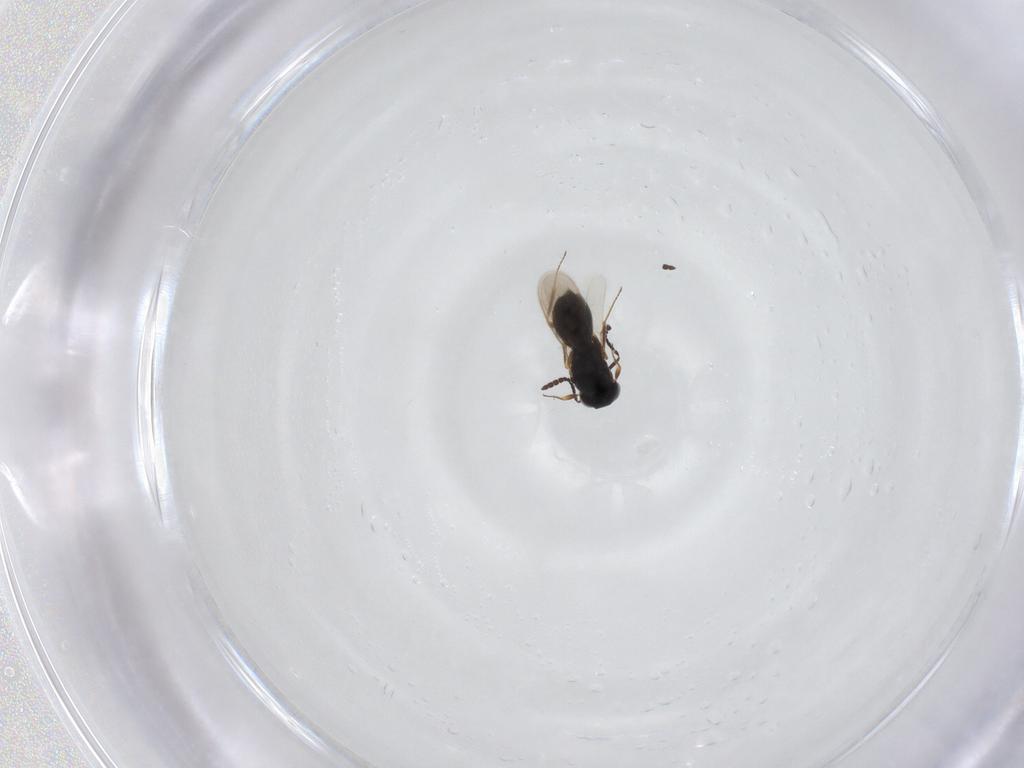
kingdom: Animalia
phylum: Arthropoda
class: Insecta
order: Hymenoptera
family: Scelionidae
